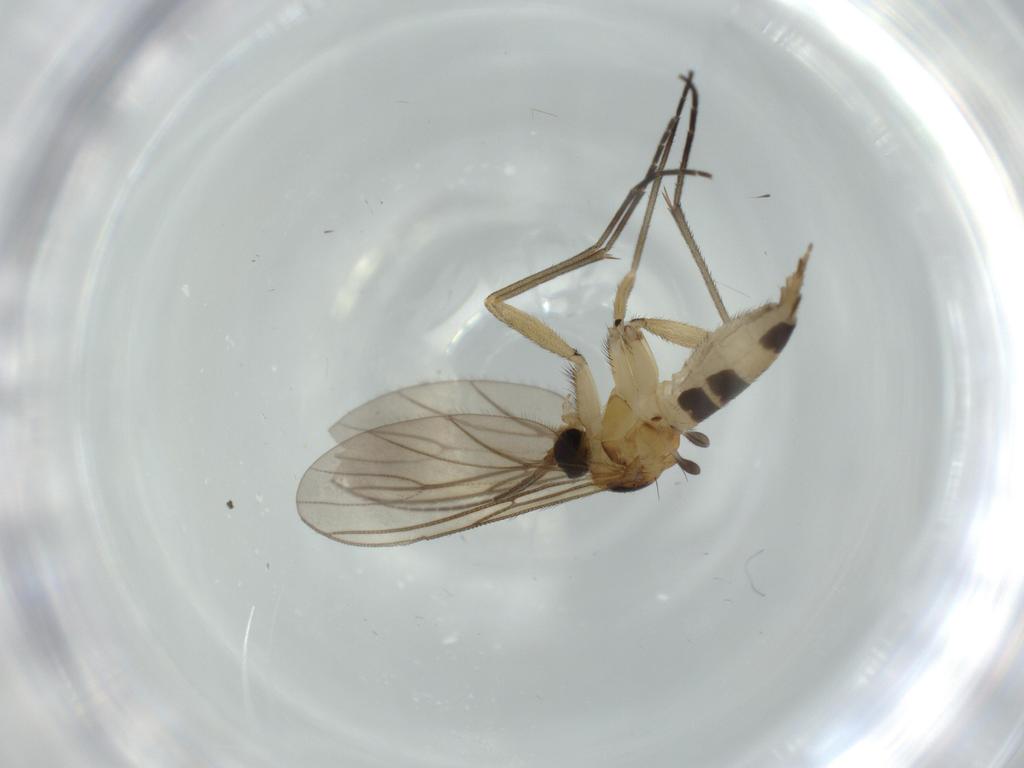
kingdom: Animalia
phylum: Arthropoda
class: Insecta
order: Diptera
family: Sciaridae
